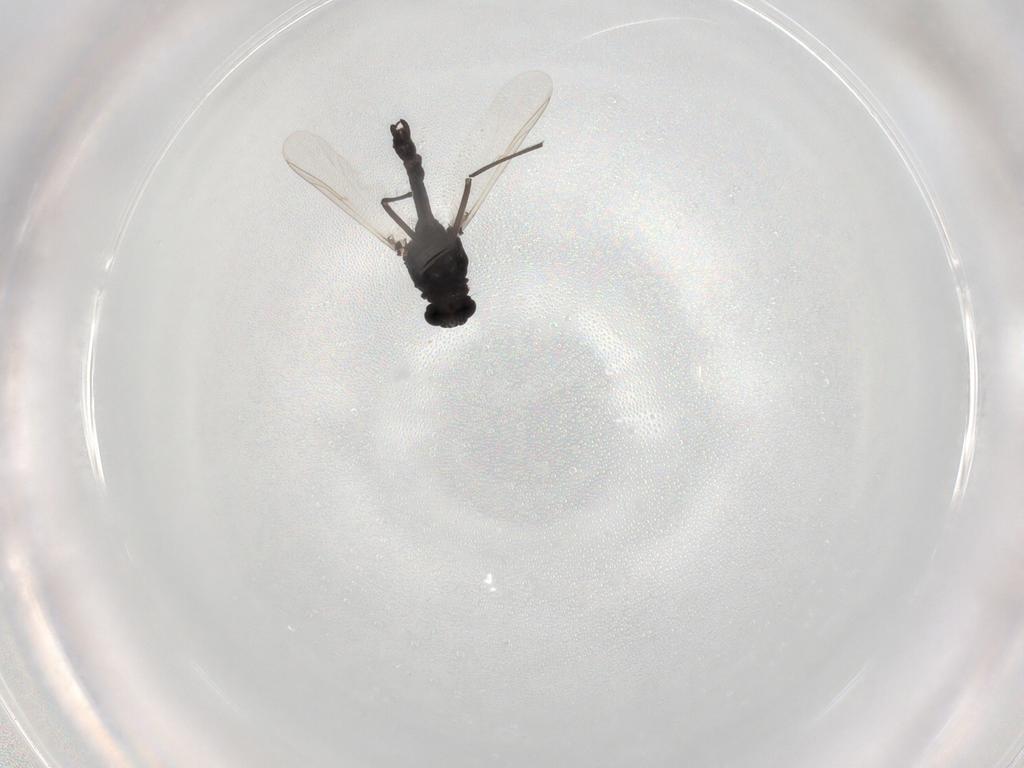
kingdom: Animalia
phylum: Arthropoda
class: Insecta
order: Diptera
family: Chironomidae
